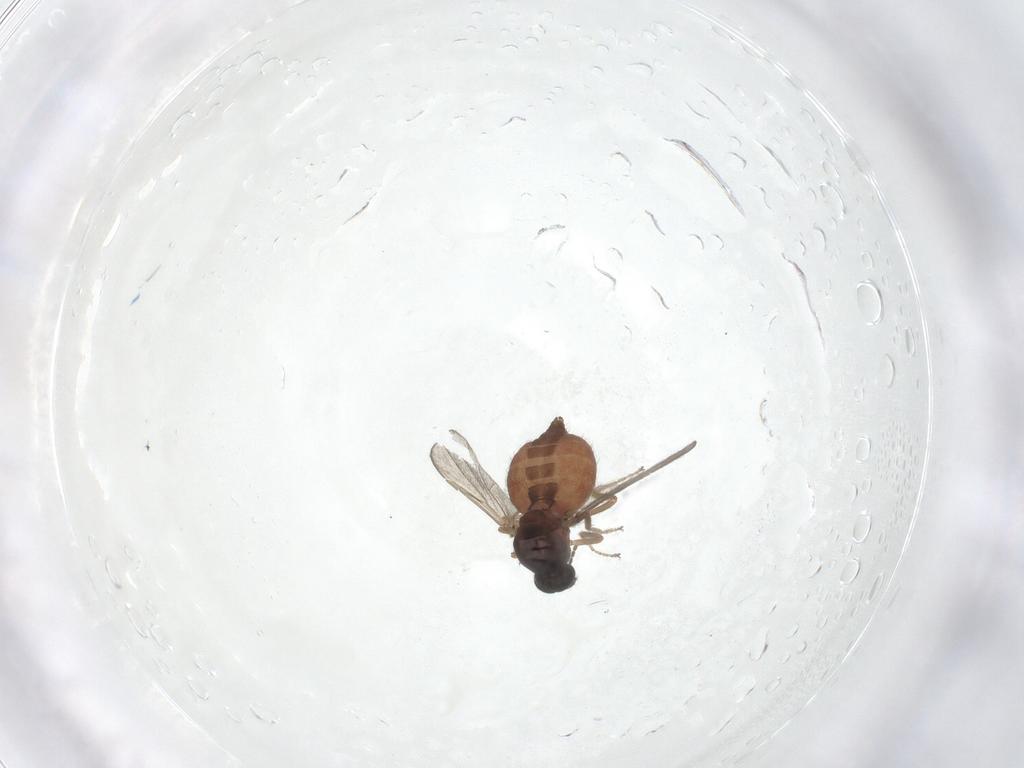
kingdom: Animalia
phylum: Arthropoda
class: Insecta
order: Diptera
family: Ceratopogonidae
